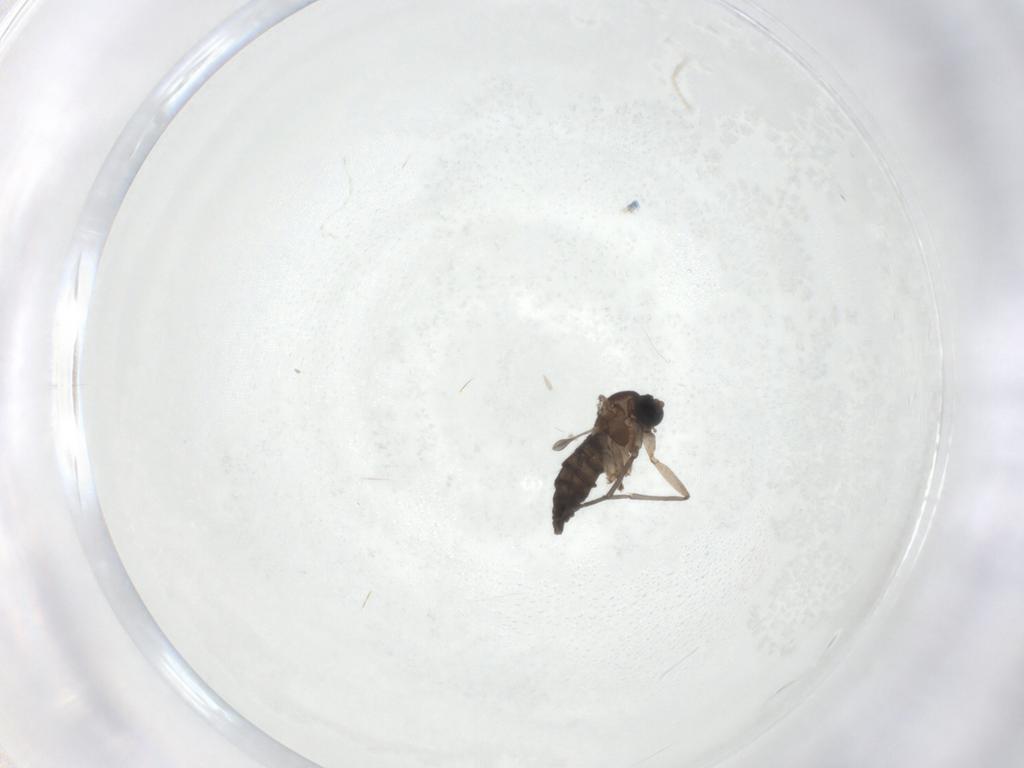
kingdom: Animalia
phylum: Arthropoda
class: Insecta
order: Diptera
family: Sciaridae
